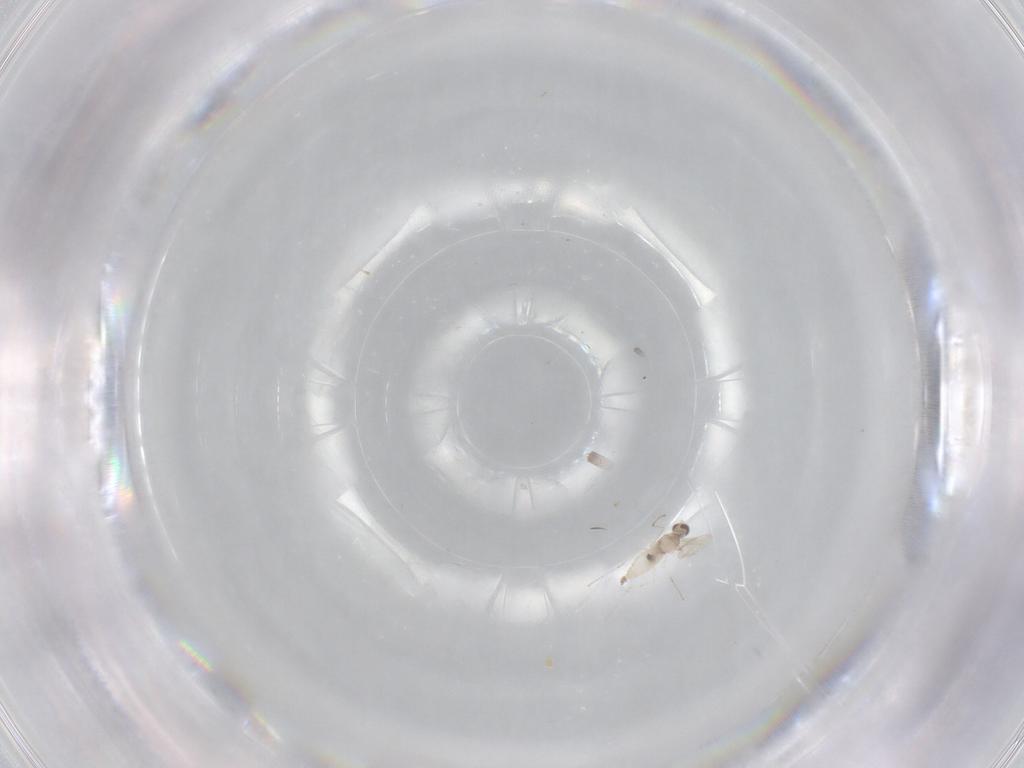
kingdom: Animalia
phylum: Arthropoda
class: Insecta
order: Diptera
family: Cecidomyiidae
